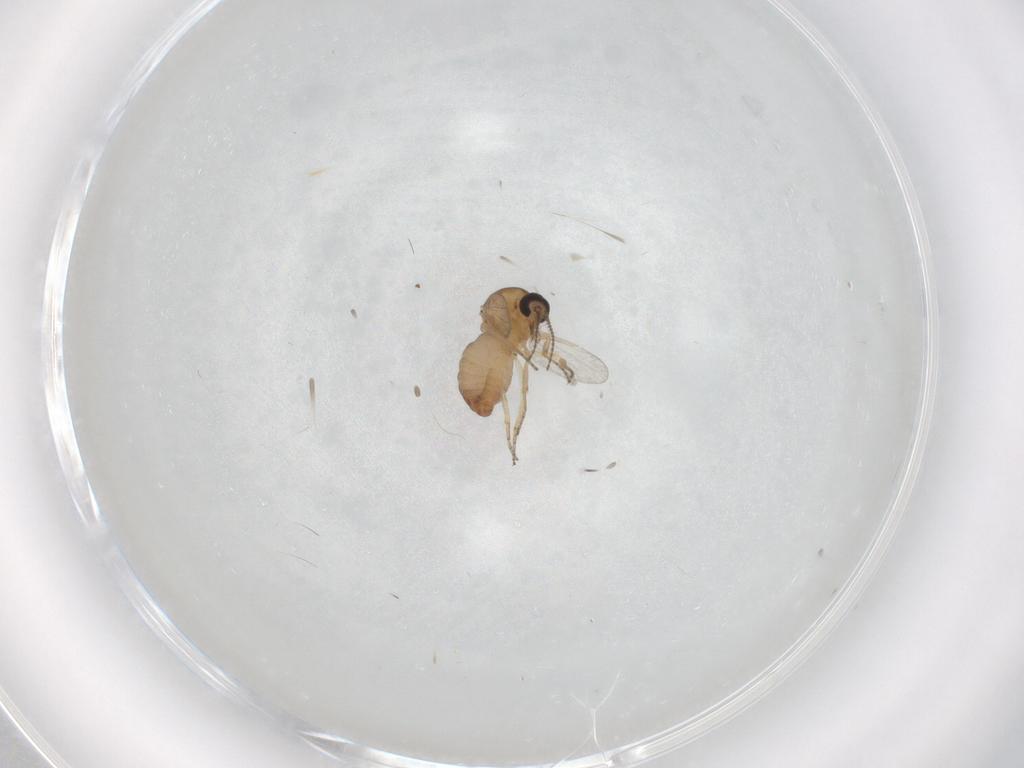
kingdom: Animalia
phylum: Arthropoda
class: Insecta
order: Diptera
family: Ceratopogonidae
